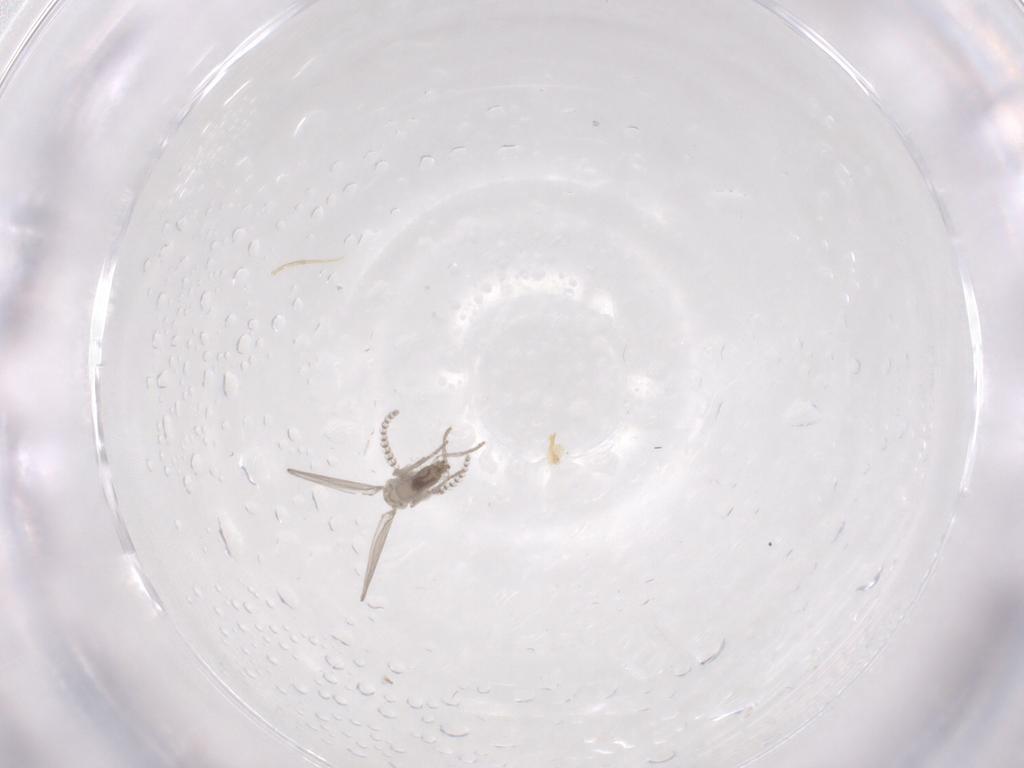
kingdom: Animalia
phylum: Arthropoda
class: Insecta
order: Diptera
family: Psychodidae
